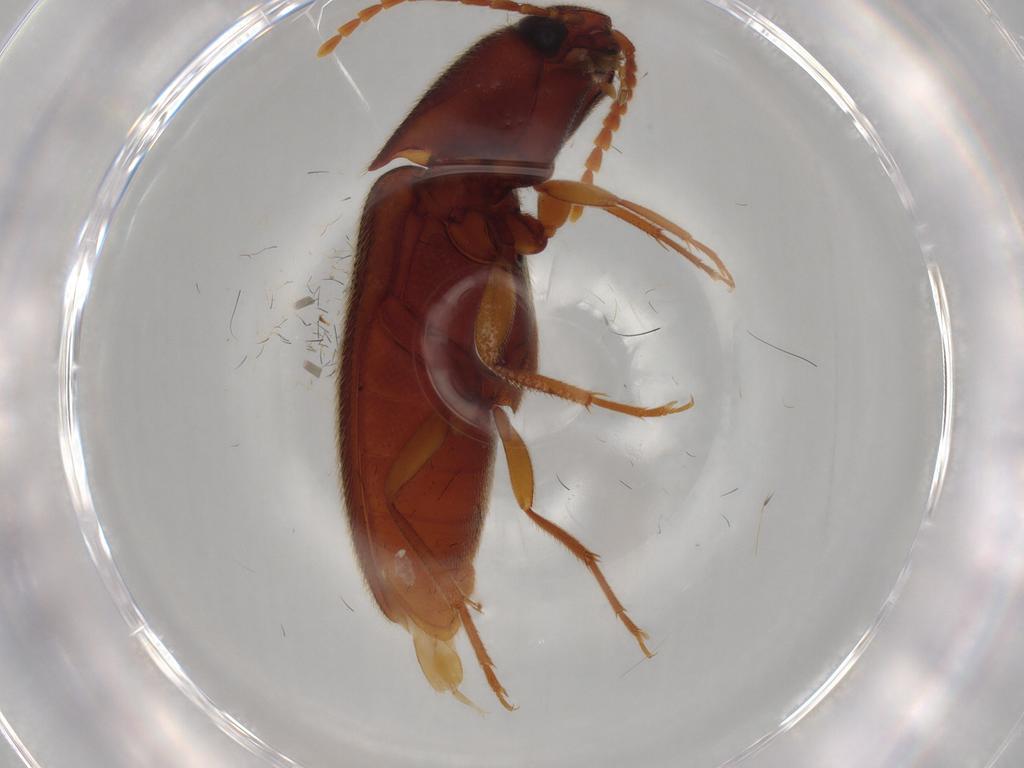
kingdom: Animalia
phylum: Arthropoda
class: Insecta
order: Coleoptera
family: Elateridae
